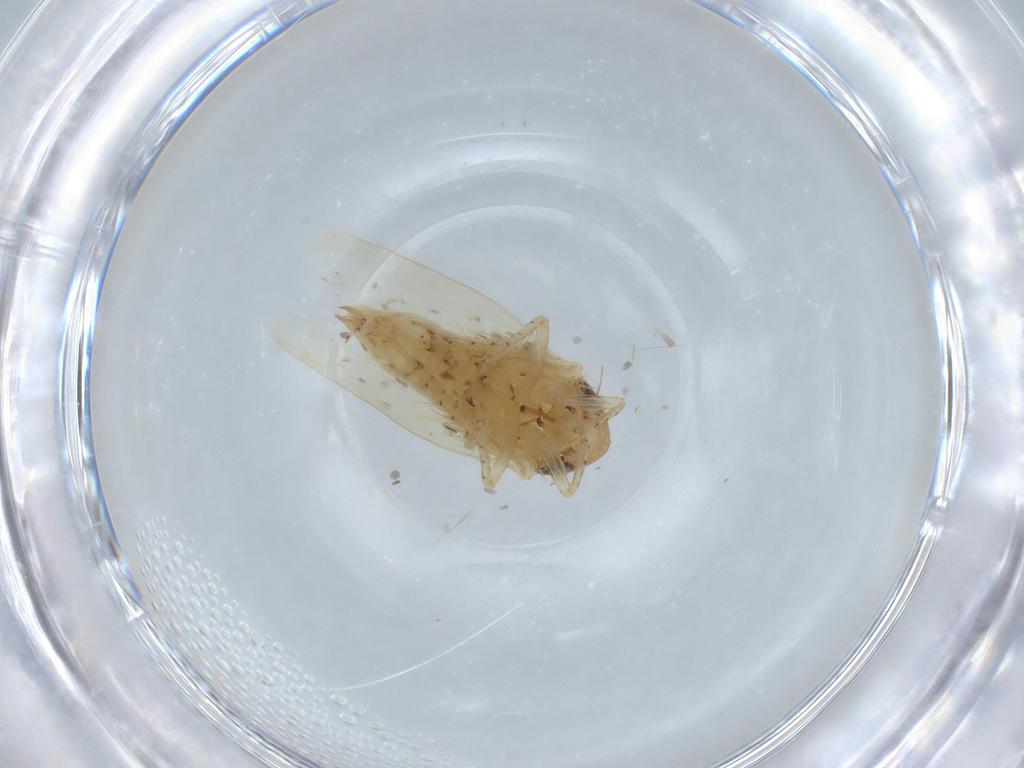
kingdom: Animalia
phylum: Arthropoda
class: Insecta
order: Hemiptera
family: Cicadellidae
